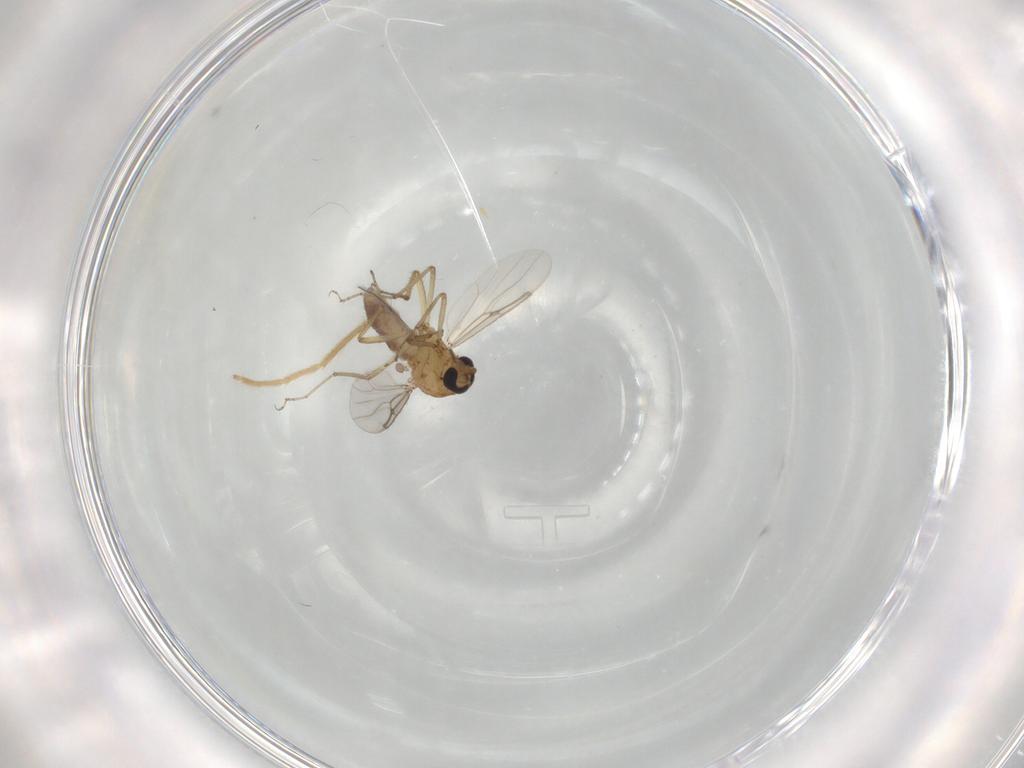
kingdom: Animalia
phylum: Arthropoda
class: Insecta
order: Diptera
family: Chironomidae
